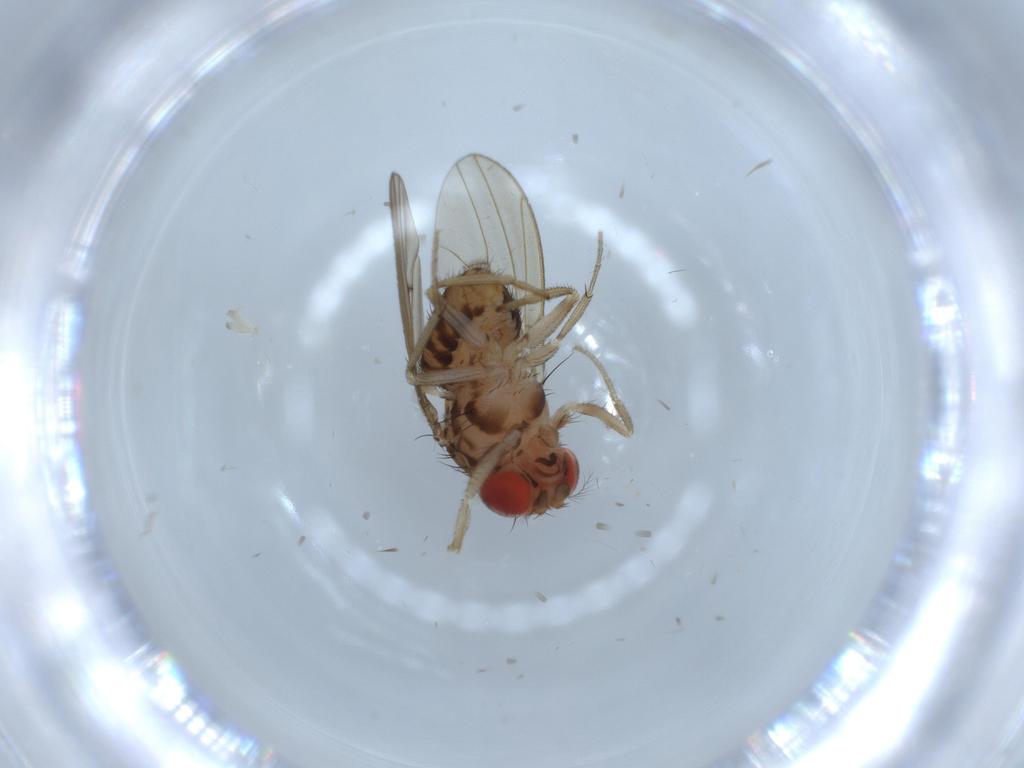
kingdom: Animalia
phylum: Arthropoda
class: Insecta
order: Diptera
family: Drosophilidae
